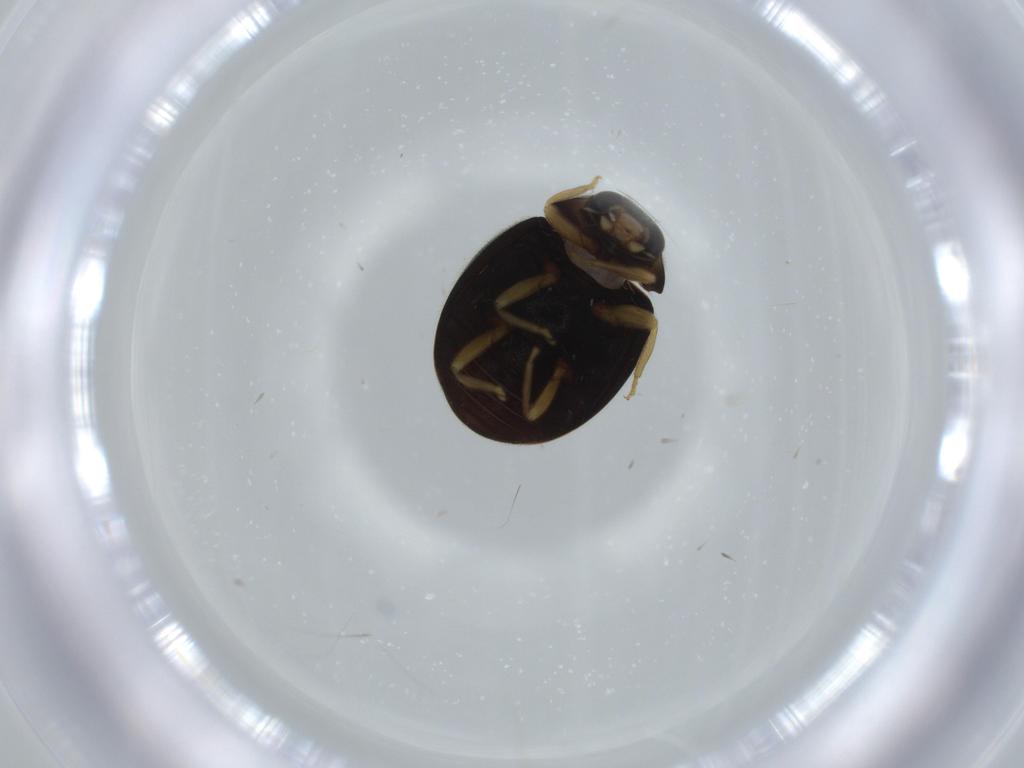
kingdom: Animalia
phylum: Arthropoda
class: Insecta
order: Coleoptera
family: Coccinellidae
